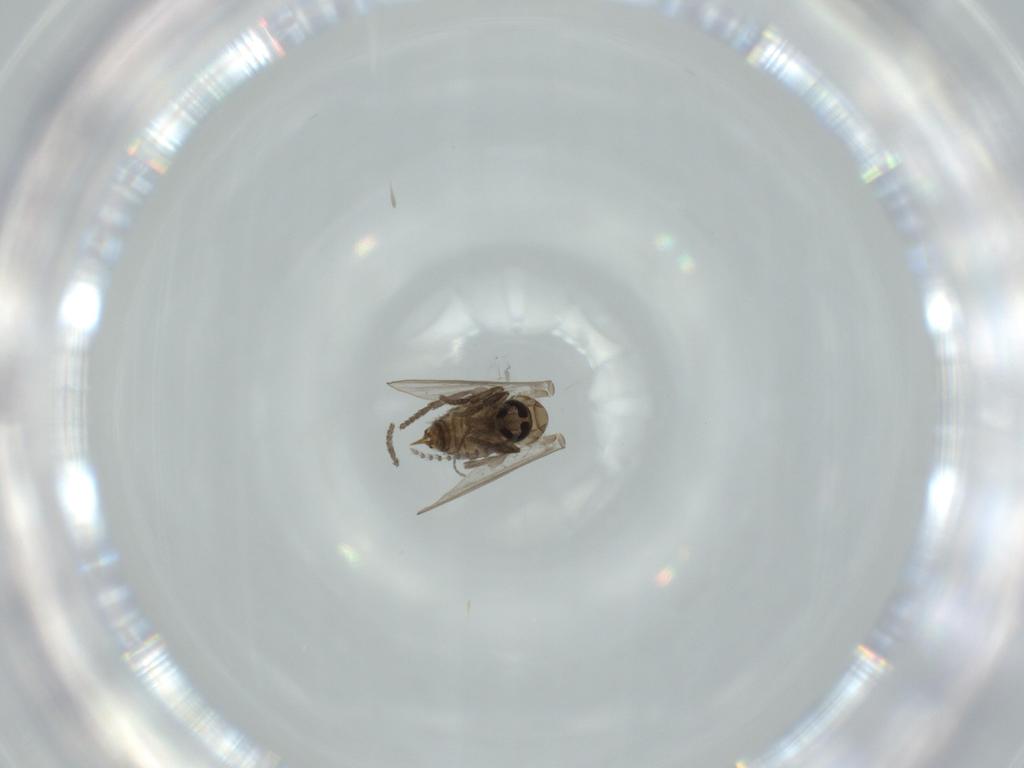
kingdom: Animalia
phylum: Arthropoda
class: Insecta
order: Diptera
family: Psychodidae
